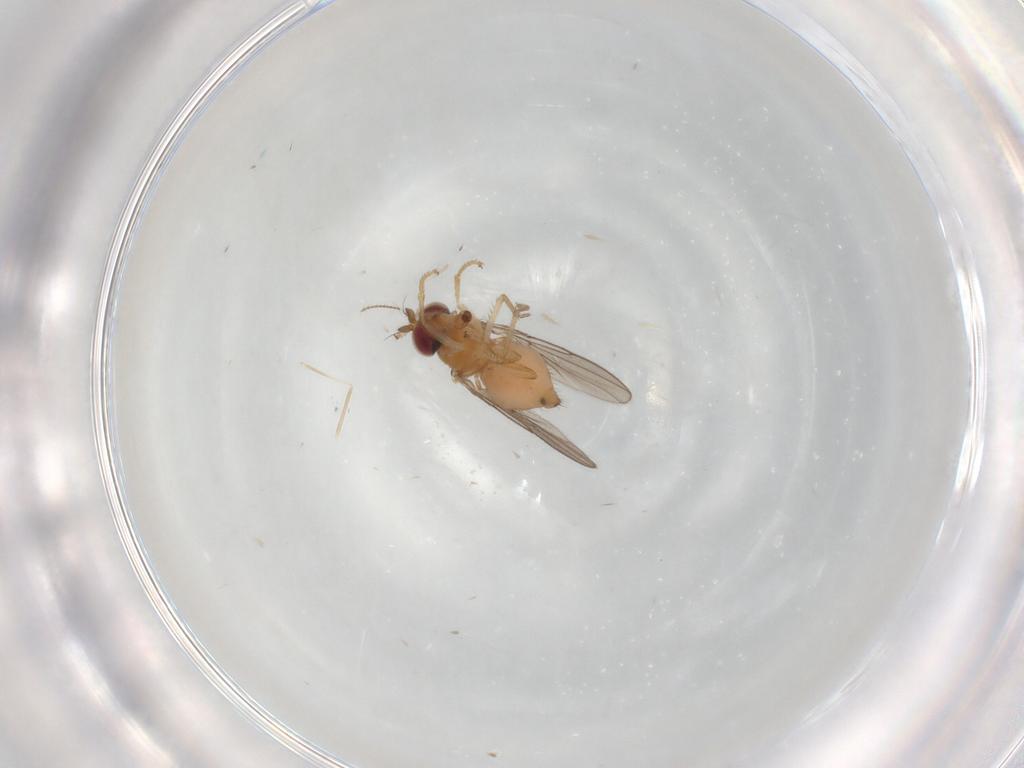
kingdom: Animalia
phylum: Arthropoda
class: Insecta
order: Diptera
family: Ephydridae
